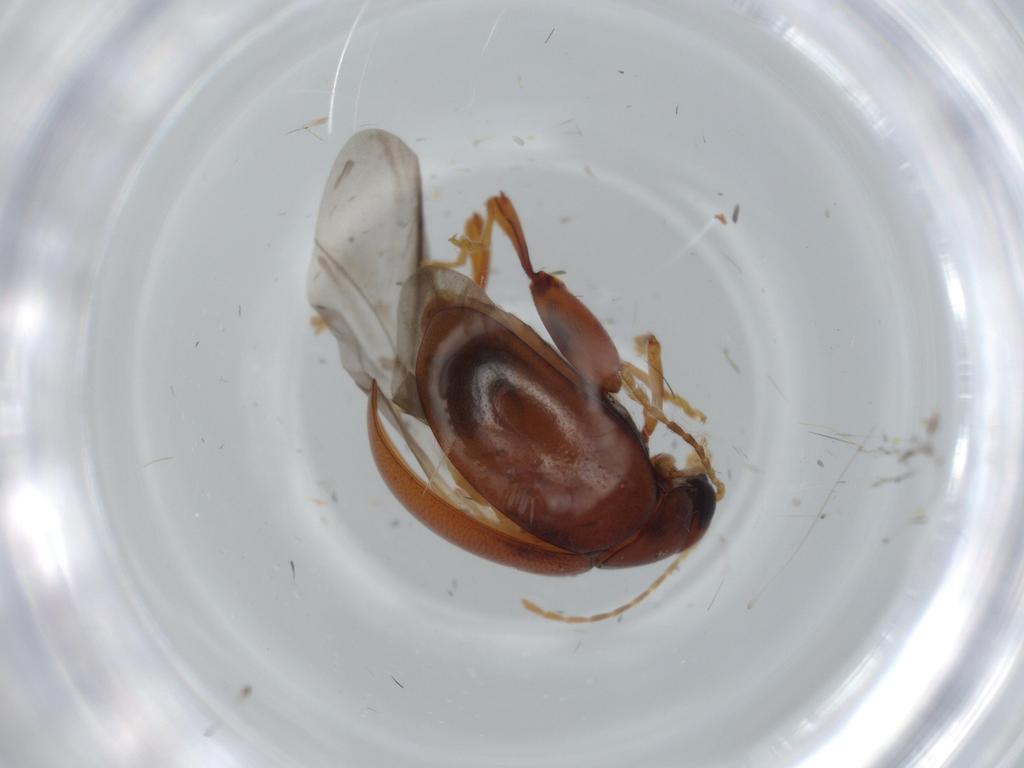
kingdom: Animalia
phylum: Arthropoda
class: Insecta
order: Coleoptera
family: Chrysomelidae
